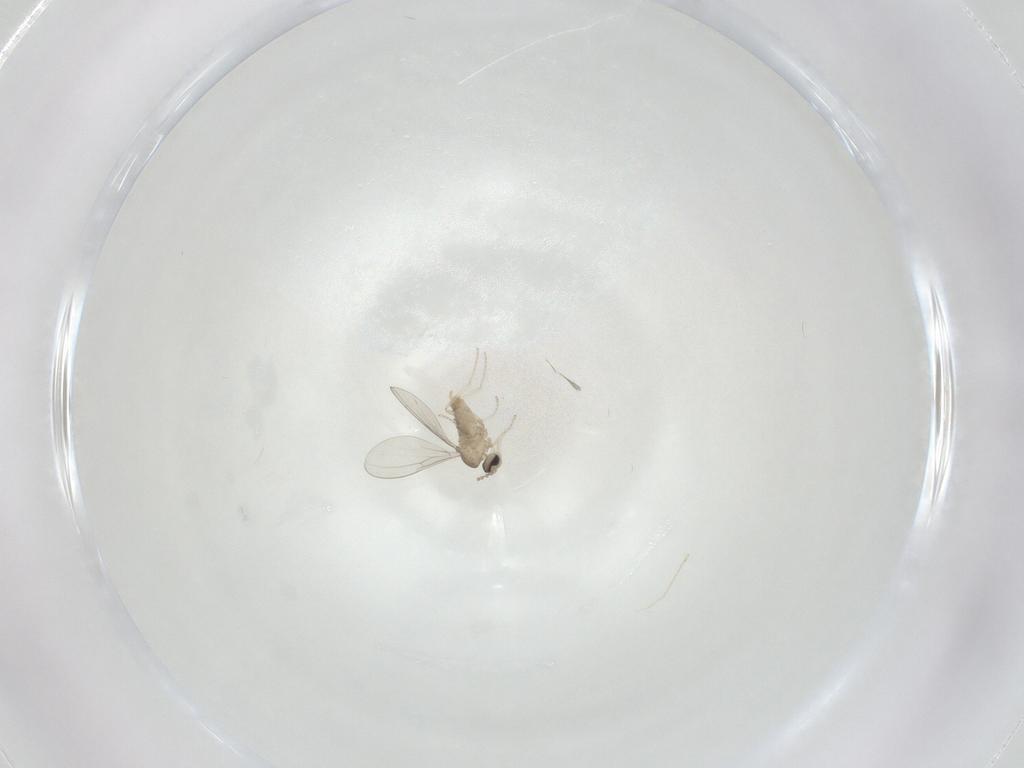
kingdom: Animalia
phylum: Arthropoda
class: Insecta
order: Diptera
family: Cecidomyiidae
